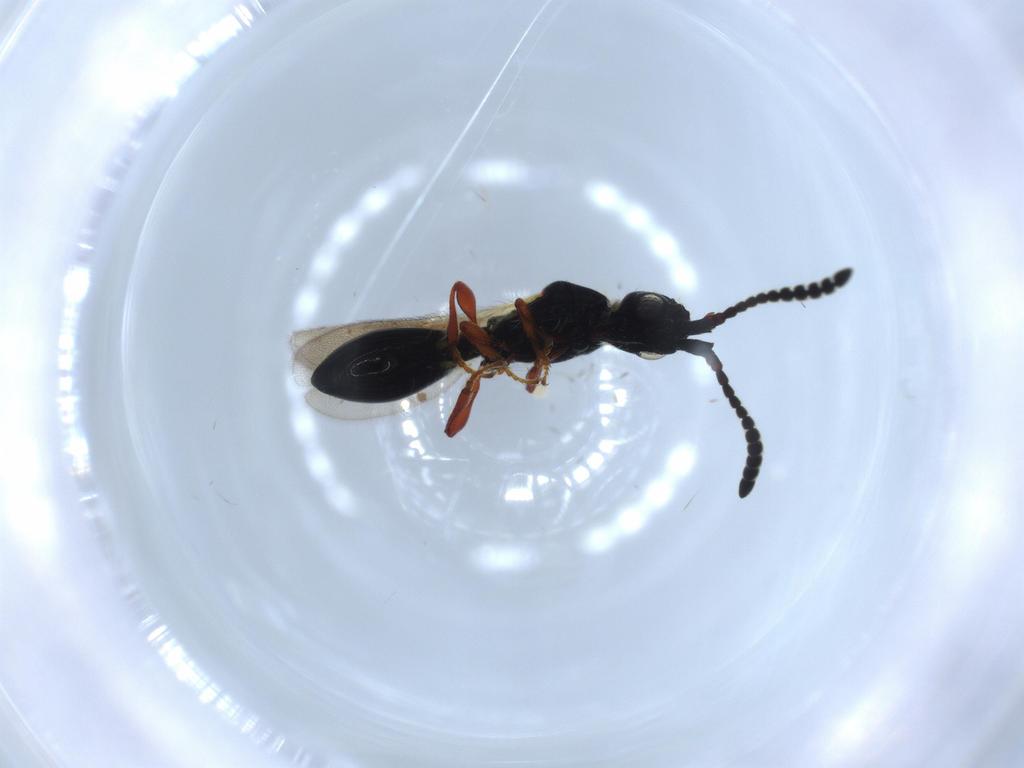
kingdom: Animalia
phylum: Arthropoda
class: Insecta
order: Hymenoptera
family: Diapriidae
